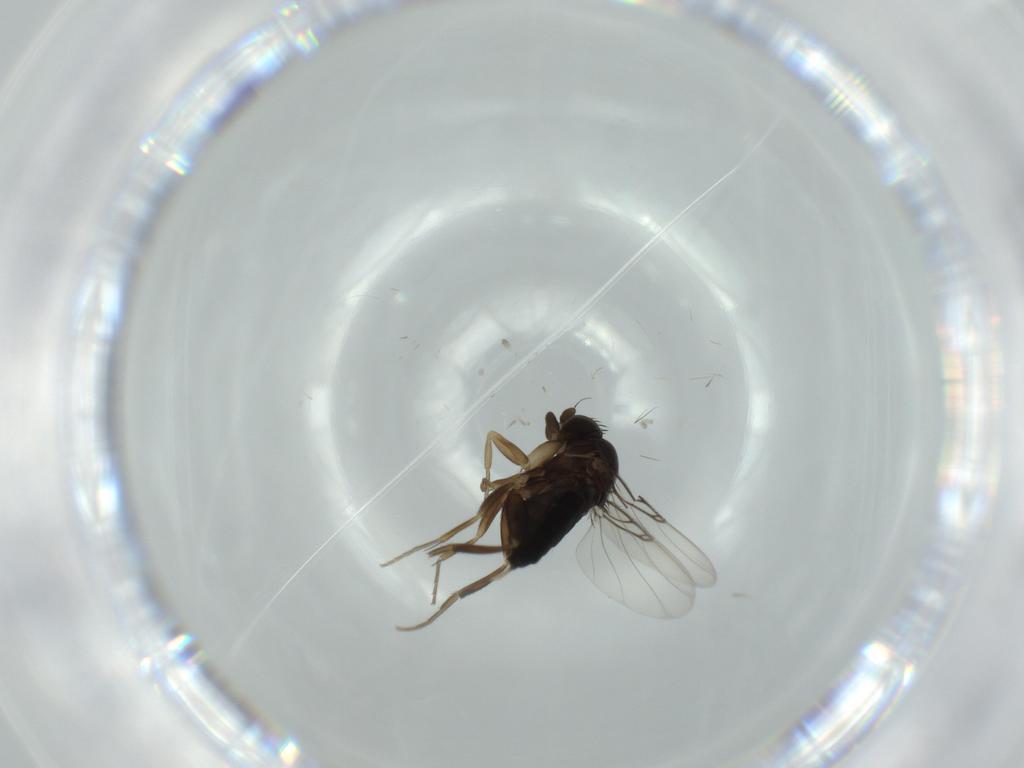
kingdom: Animalia
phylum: Arthropoda
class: Insecta
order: Diptera
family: Phoridae
